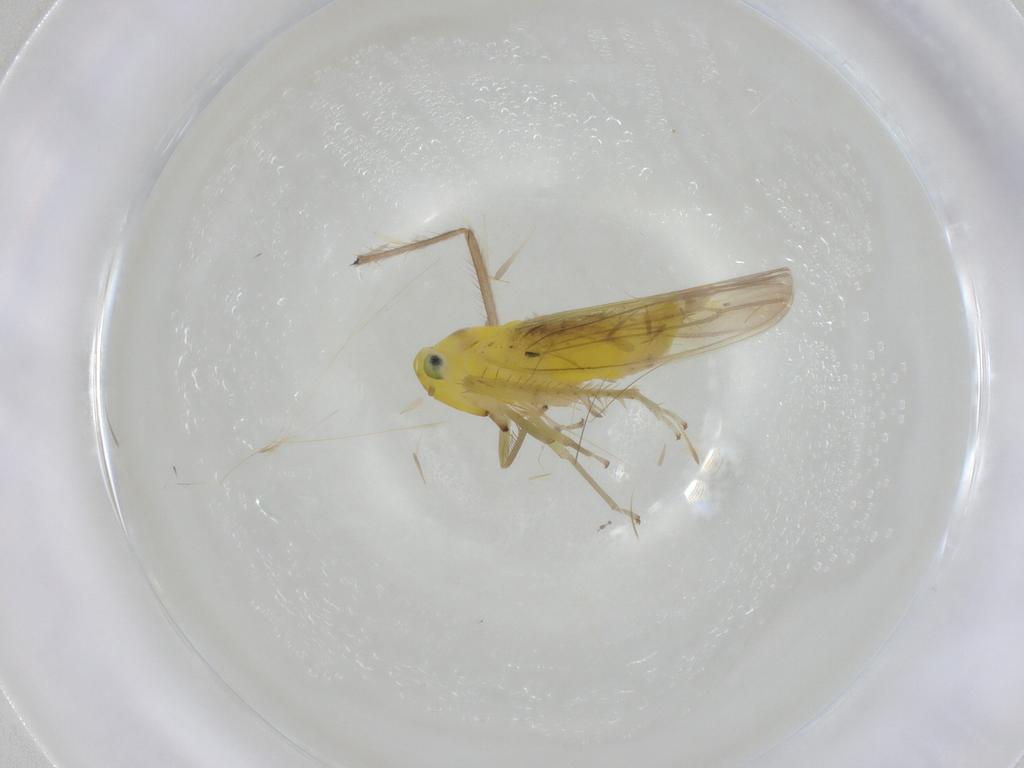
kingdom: Animalia
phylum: Arthropoda
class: Insecta
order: Hemiptera
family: Cicadellidae
